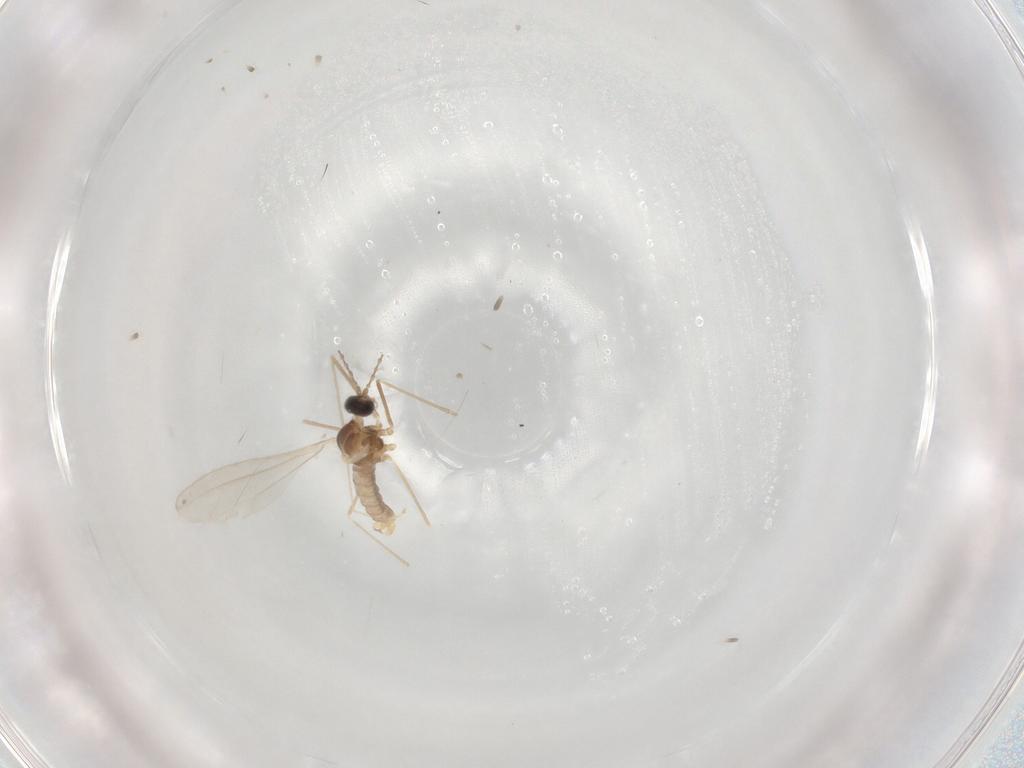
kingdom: Animalia
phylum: Arthropoda
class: Insecta
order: Diptera
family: Cecidomyiidae
